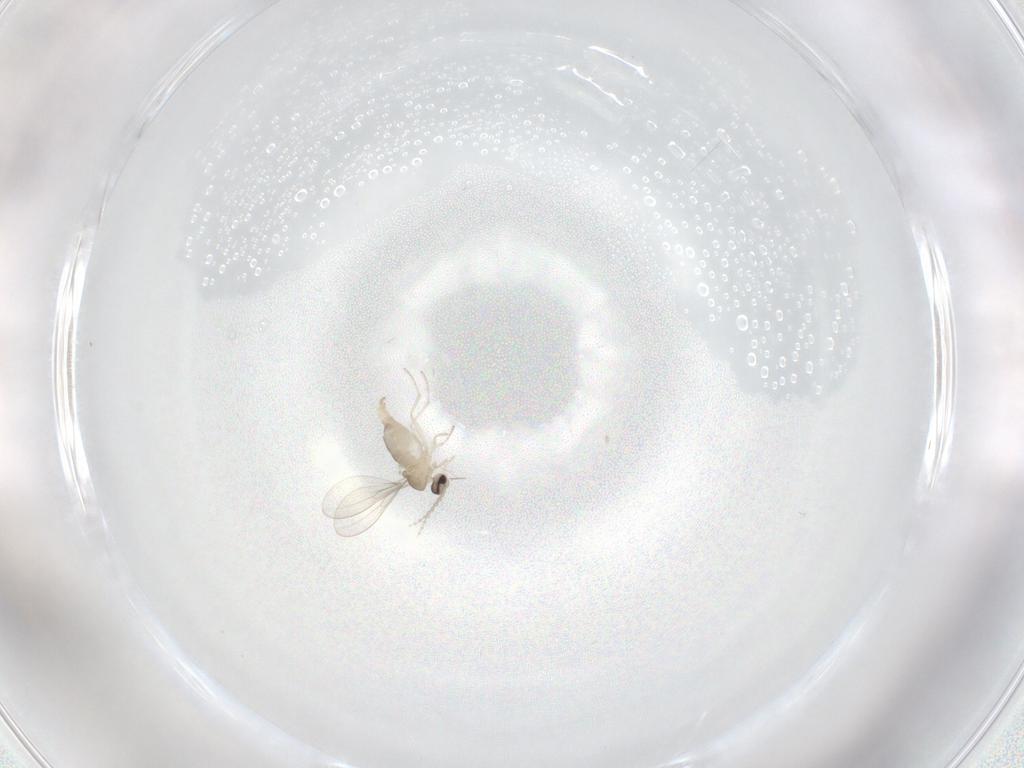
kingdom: Animalia
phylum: Arthropoda
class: Insecta
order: Diptera
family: Cecidomyiidae
